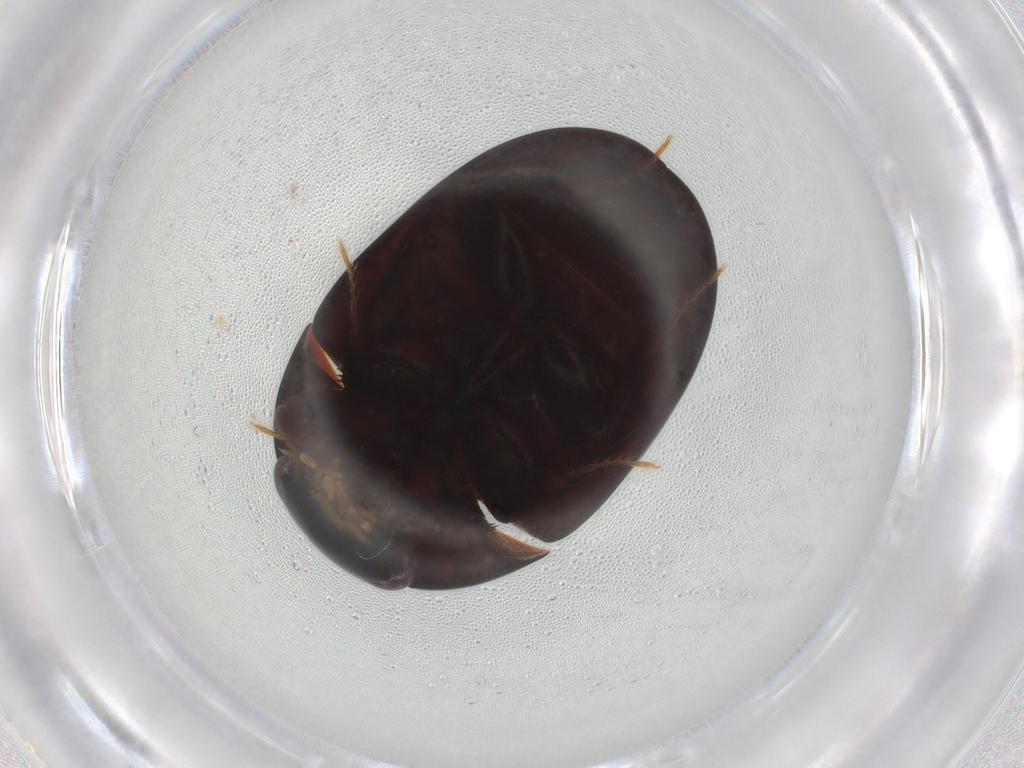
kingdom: Animalia
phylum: Arthropoda
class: Insecta
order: Coleoptera
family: Hydrophilidae
